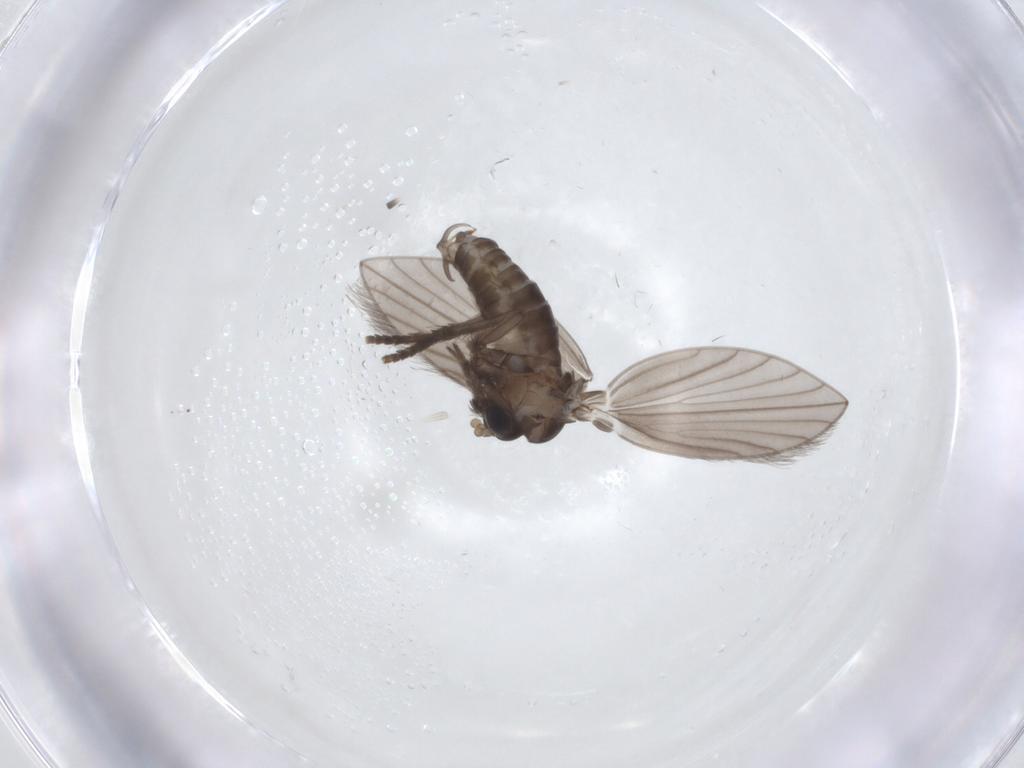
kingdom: Animalia
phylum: Arthropoda
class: Insecta
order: Diptera
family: Psychodidae
